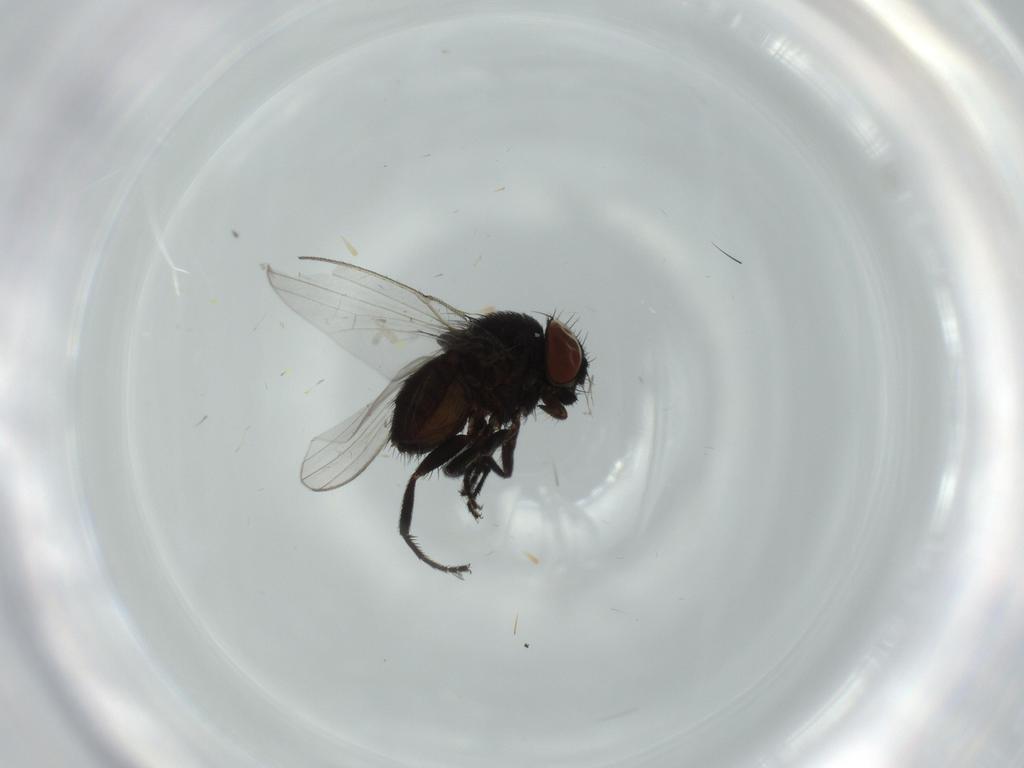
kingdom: Animalia
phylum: Arthropoda
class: Insecta
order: Diptera
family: Milichiidae
